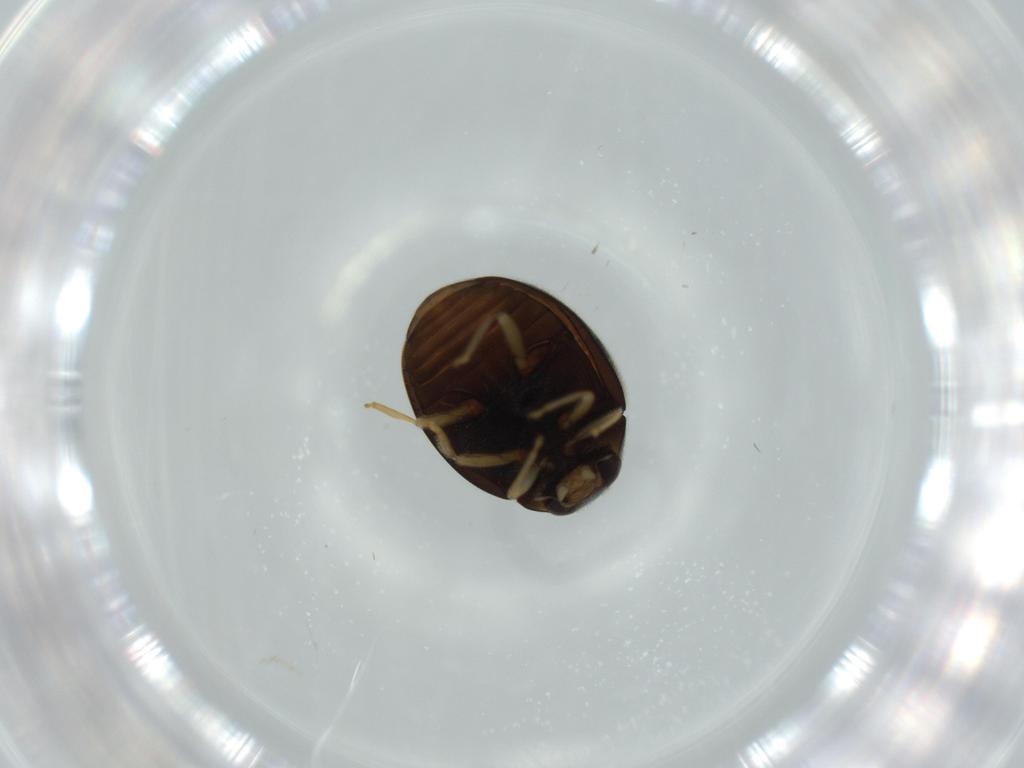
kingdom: Animalia
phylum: Arthropoda
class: Insecta
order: Coleoptera
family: Coccinellidae
